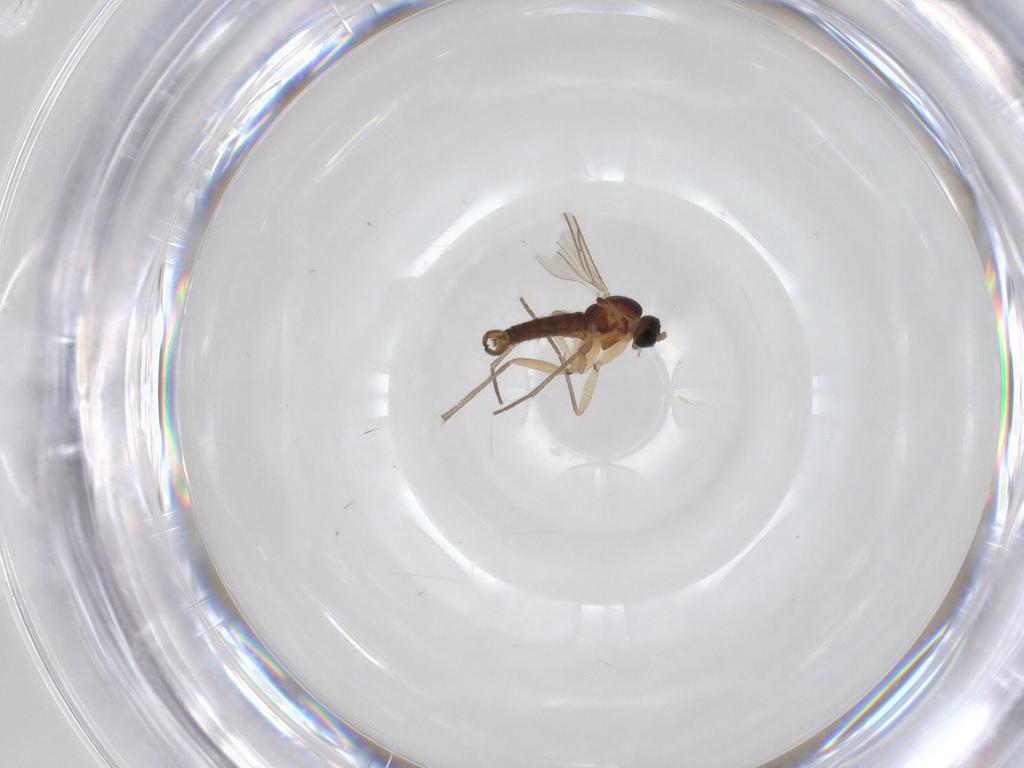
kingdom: Animalia
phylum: Arthropoda
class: Insecta
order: Diptera
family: Sciaridae
